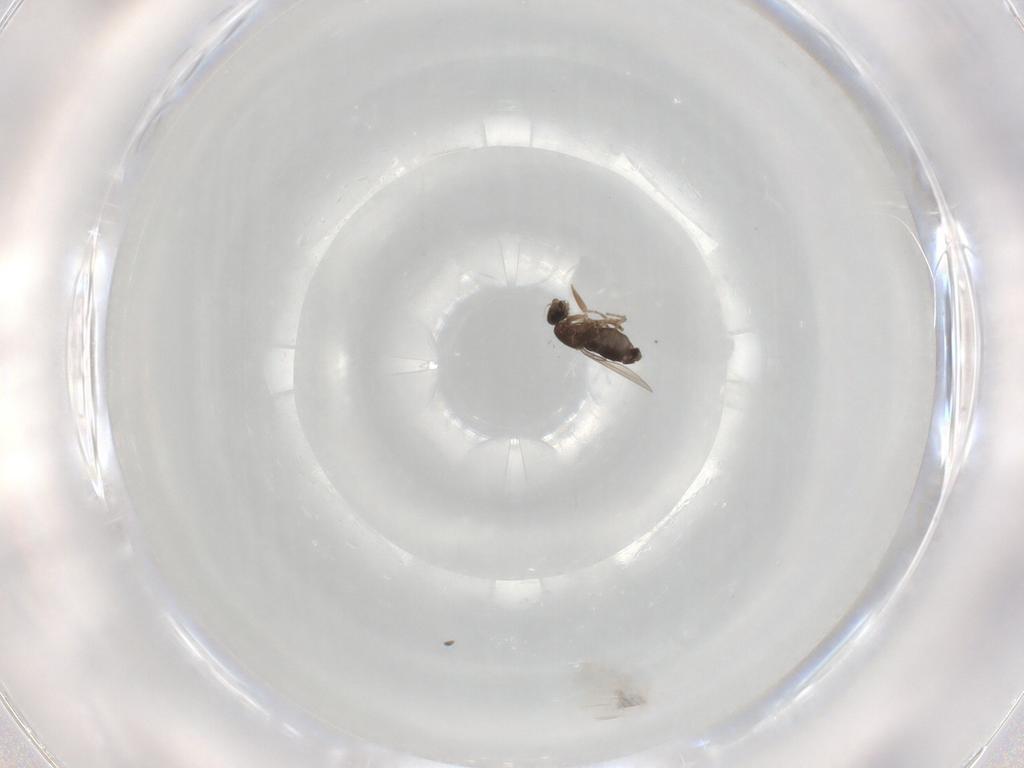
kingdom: Animalia
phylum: Arthropoda
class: Insecta
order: Diptera
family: Phoridae
